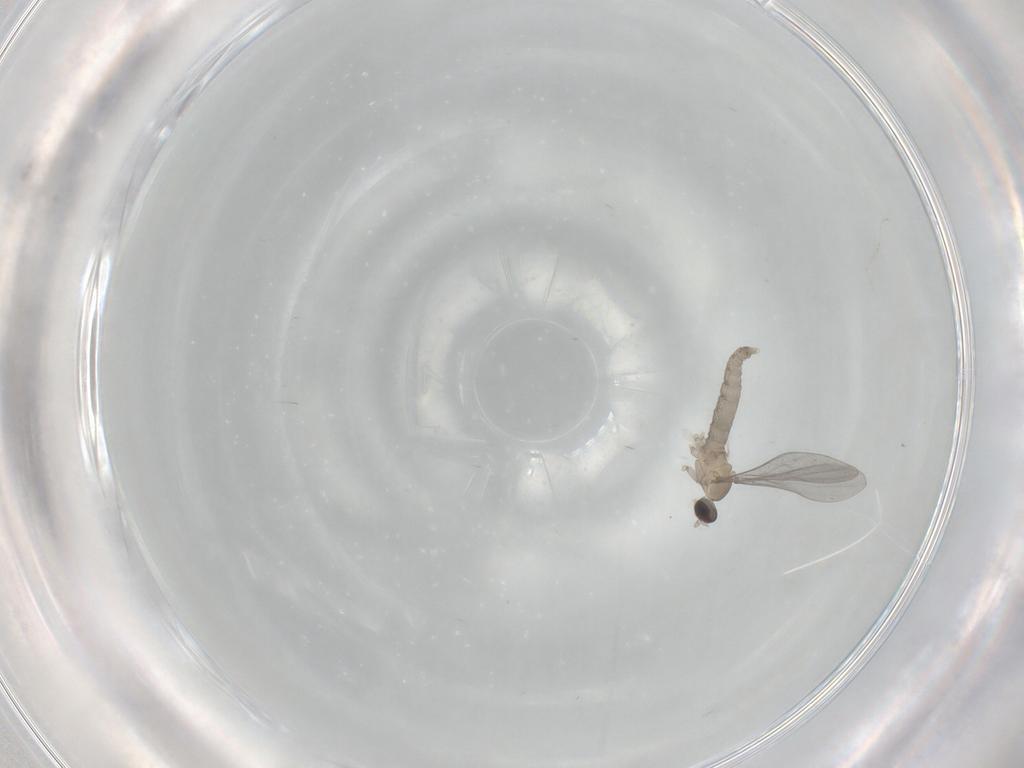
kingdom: Animalia
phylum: Arthropoda
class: Insecta
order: Diptera
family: Cecidomyiidae
